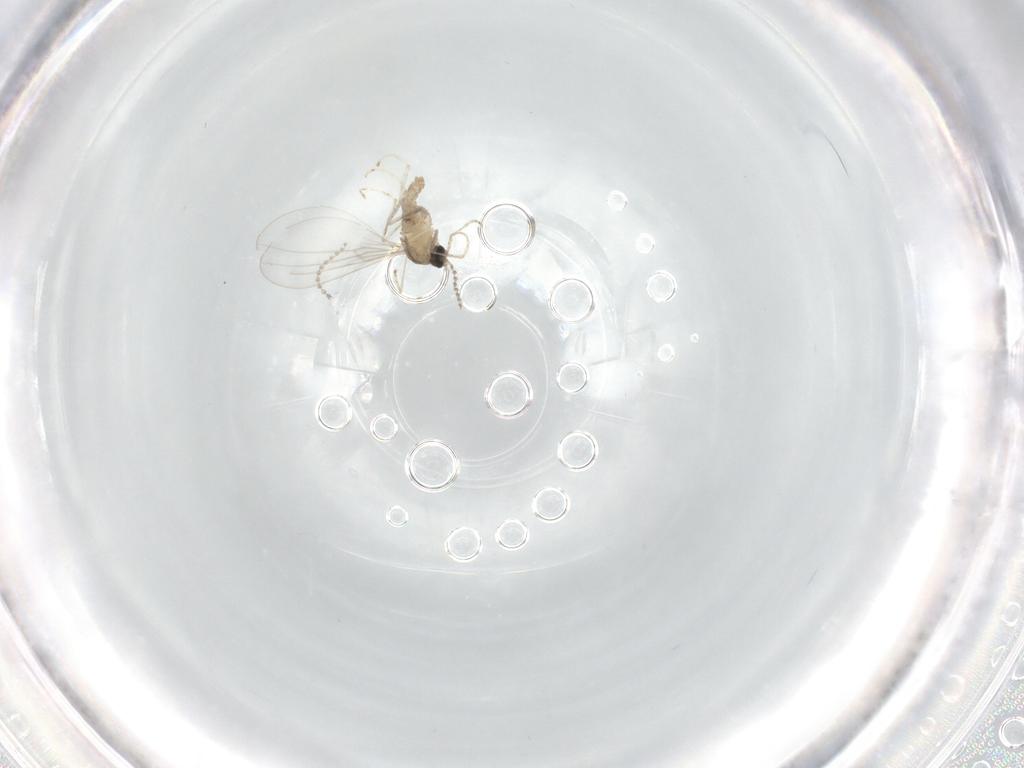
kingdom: Animalia
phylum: Arthropoda
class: Insecta
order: Diptera
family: Cecidomyiidae
